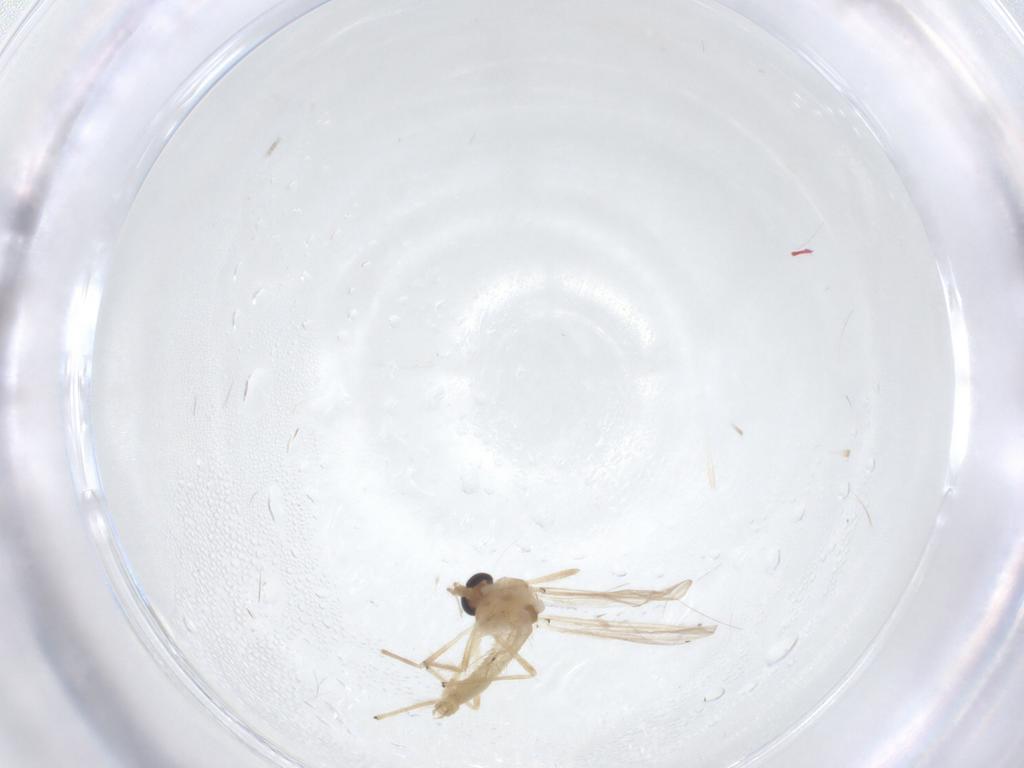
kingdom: Animalia
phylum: Arthropoda
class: Insecta
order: Diptera
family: Chironomidae
